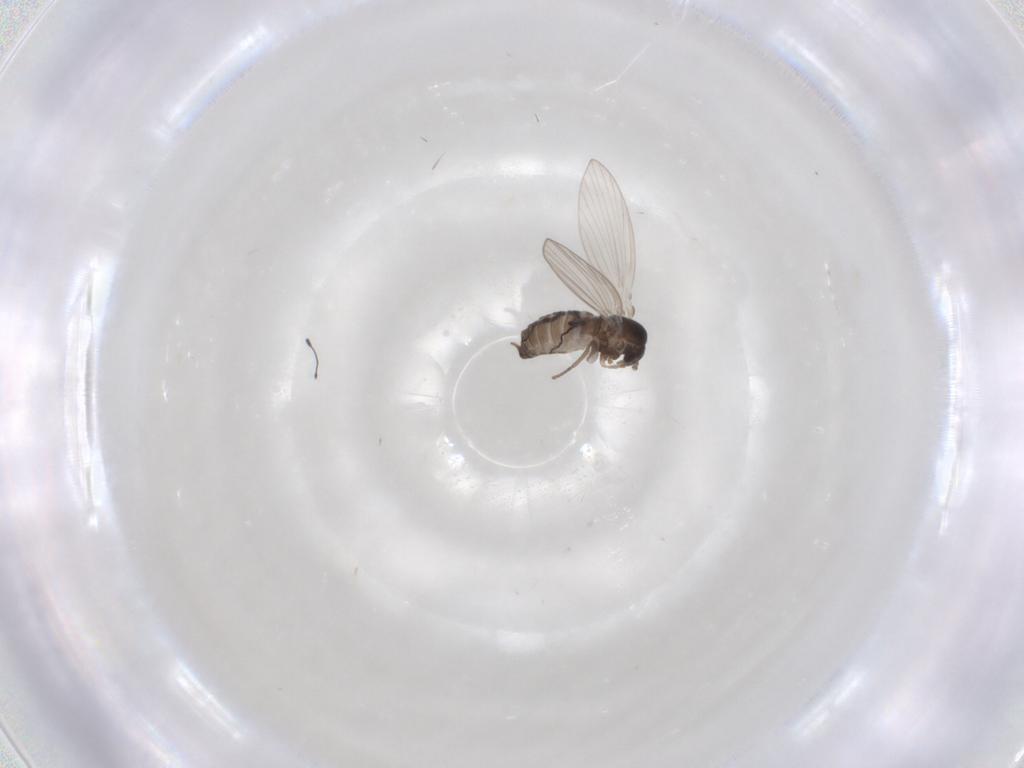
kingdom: Animalia
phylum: Arthropoda
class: Insecta
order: Diptera
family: Psychodidae
